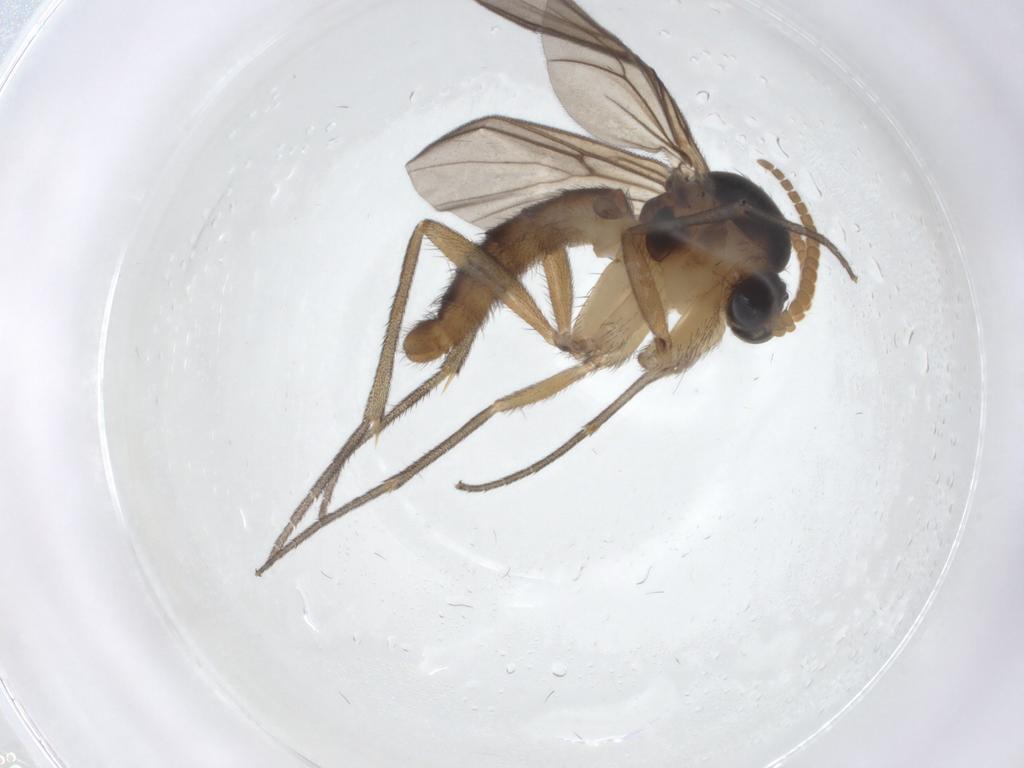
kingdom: Animalia
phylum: Arthropoda
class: Insecta
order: Diptera
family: Mycetophilidae
